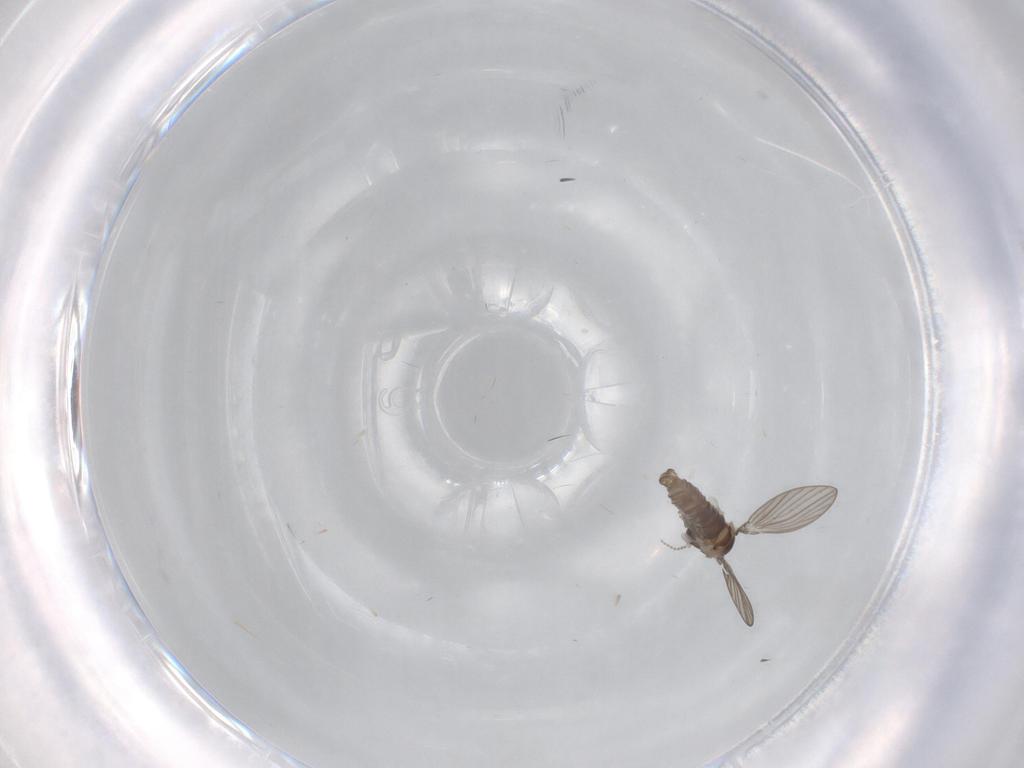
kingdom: Animalia
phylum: Arthropoda
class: Insecta
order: Diptera
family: Psychodidae
